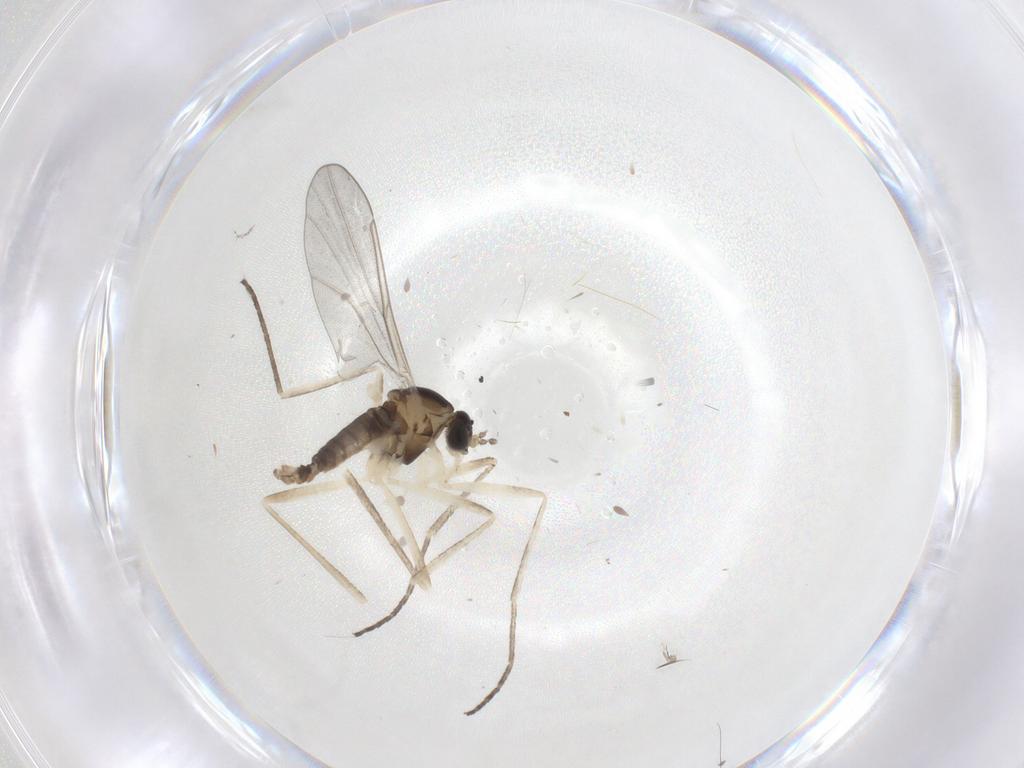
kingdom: Animalia
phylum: Arthropoda
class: Insecta
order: Diptera
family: Cecidomyiidae
